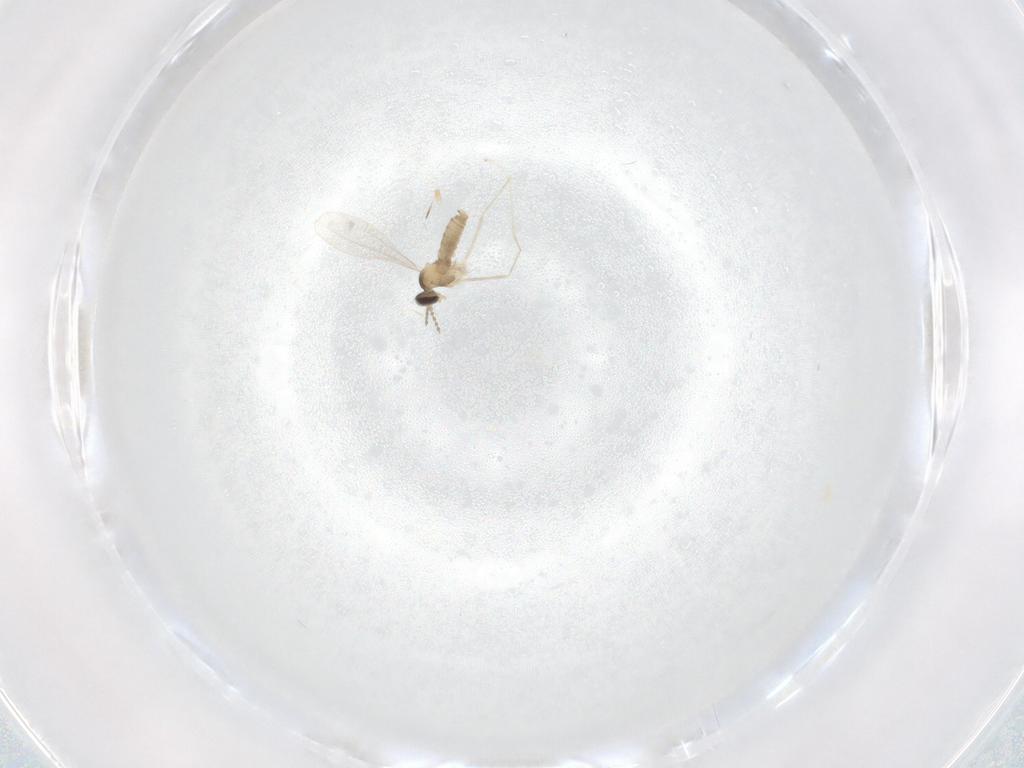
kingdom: Animalia
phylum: Arthropoda
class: Insecta
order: Diptera
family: Cecidomyiidae
